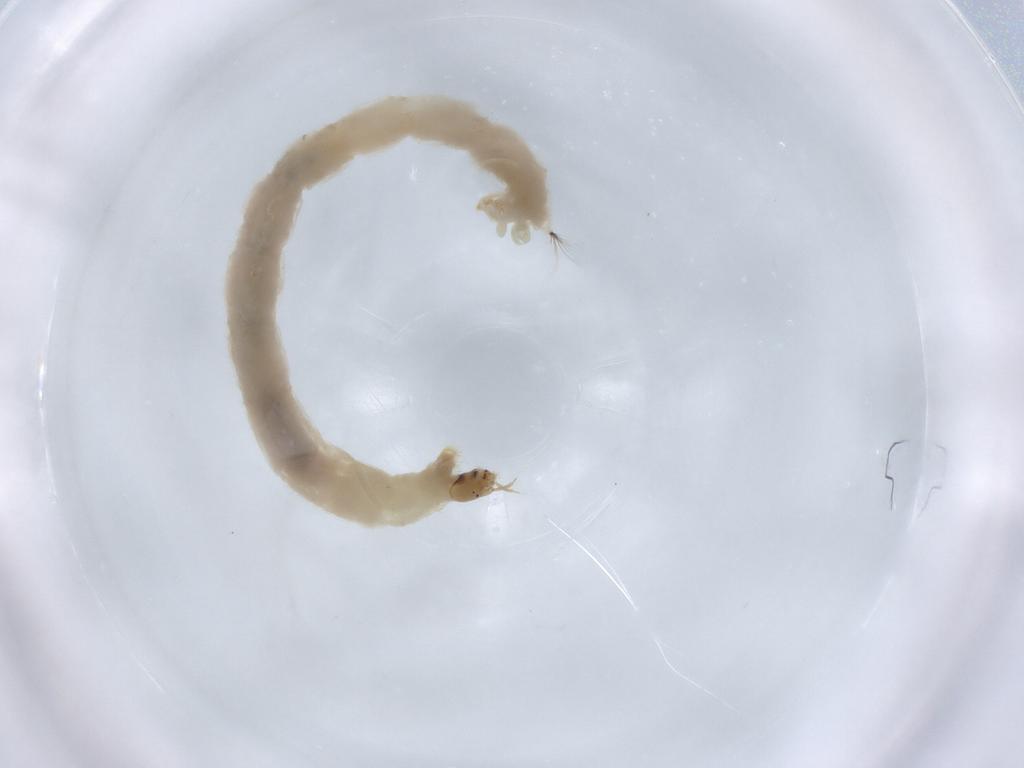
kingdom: Animalia
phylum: Arthropoda
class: Insecta
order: Diptera
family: Chironomidae
